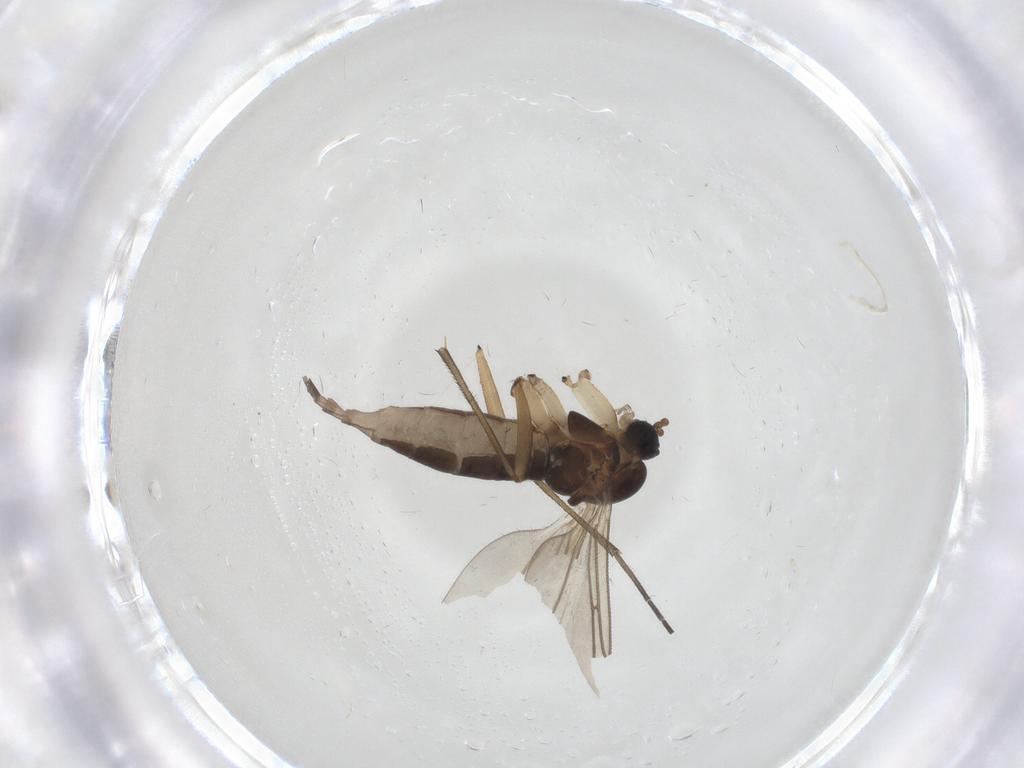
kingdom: Animalia
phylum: Arthropoda
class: Insecta
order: Diptera
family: Sciaridae
